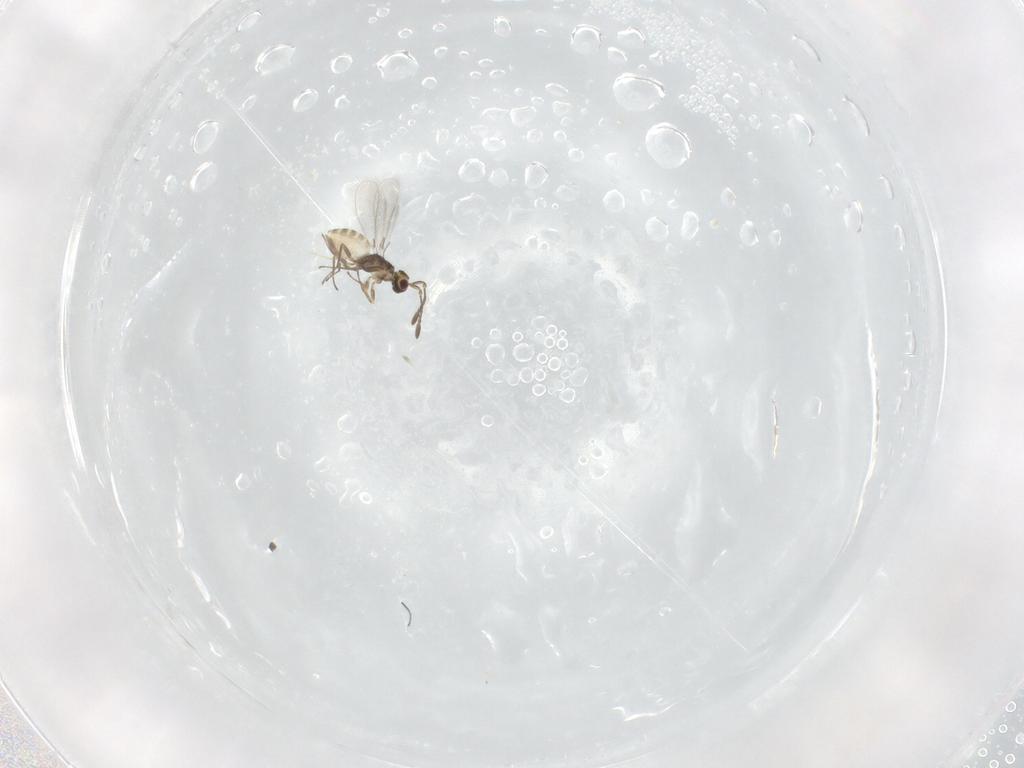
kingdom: Animalia
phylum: Arthropoda
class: Insecta
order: Hymenoptera
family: Mymaridae
